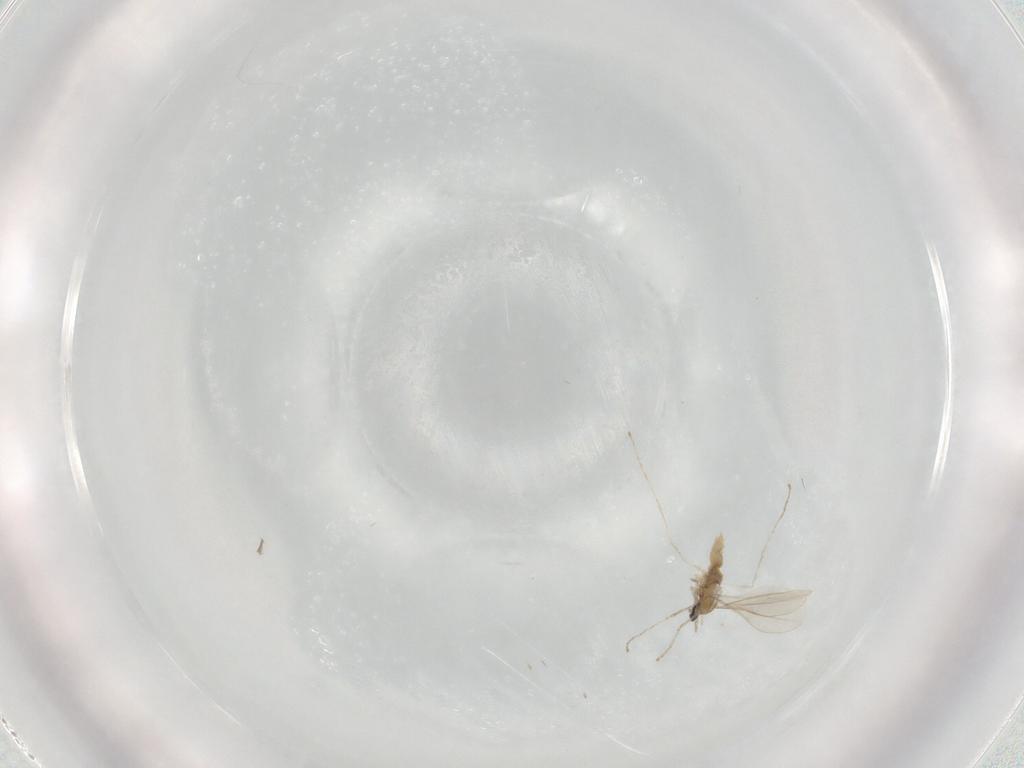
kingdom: Animalia
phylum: Arthropoda
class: Insecta
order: Diptera
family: Cecidomyiidae
